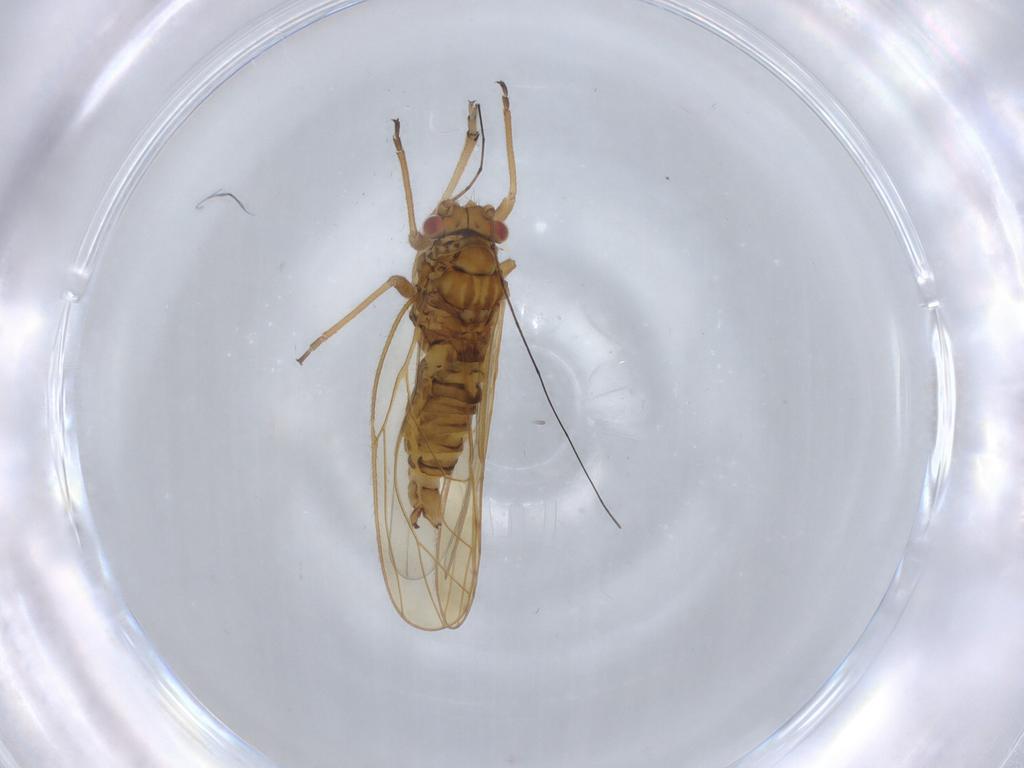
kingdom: Animalia
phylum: Arthropoda
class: Insecta
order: Hemiptera
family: Psyllidae
